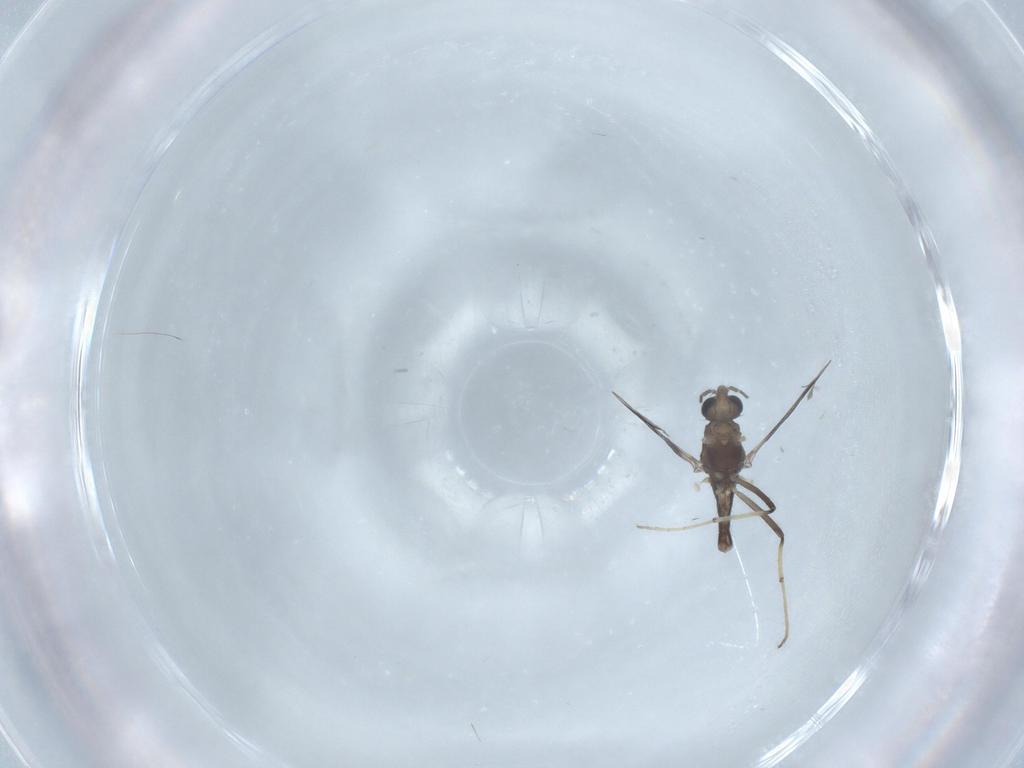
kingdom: Animalia
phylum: Arthropoda
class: Insecta
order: Diptera
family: Chironomidae
